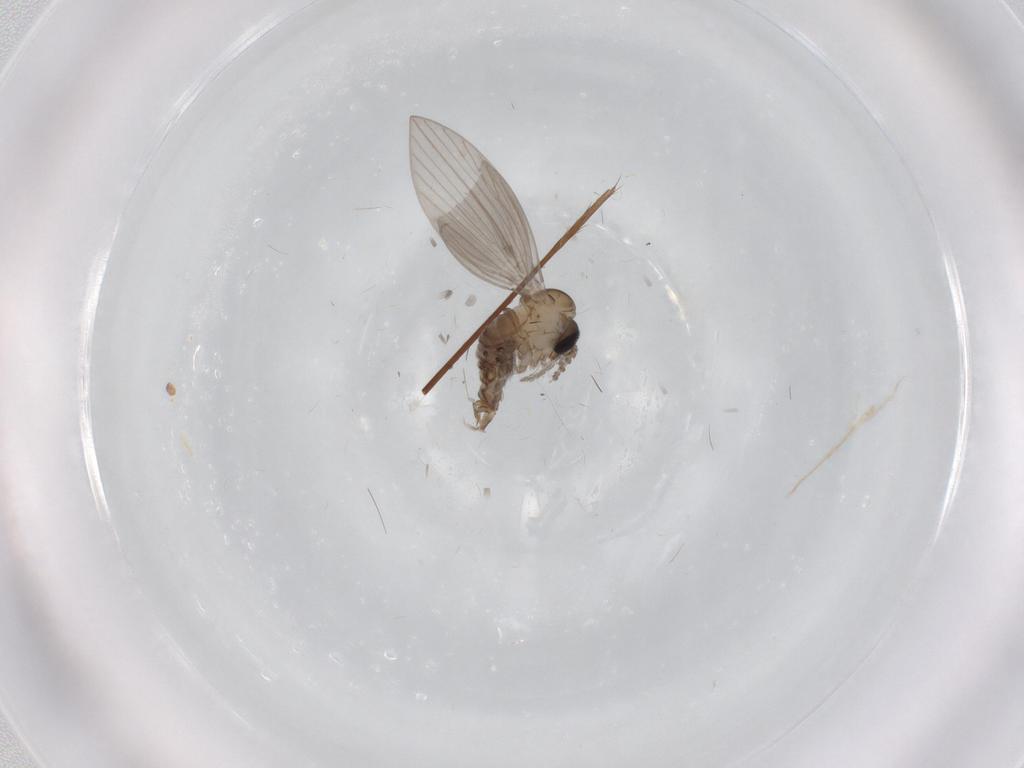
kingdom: Animalia
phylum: Arthropoda
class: Insecta
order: Diptera
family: Psychodidae
